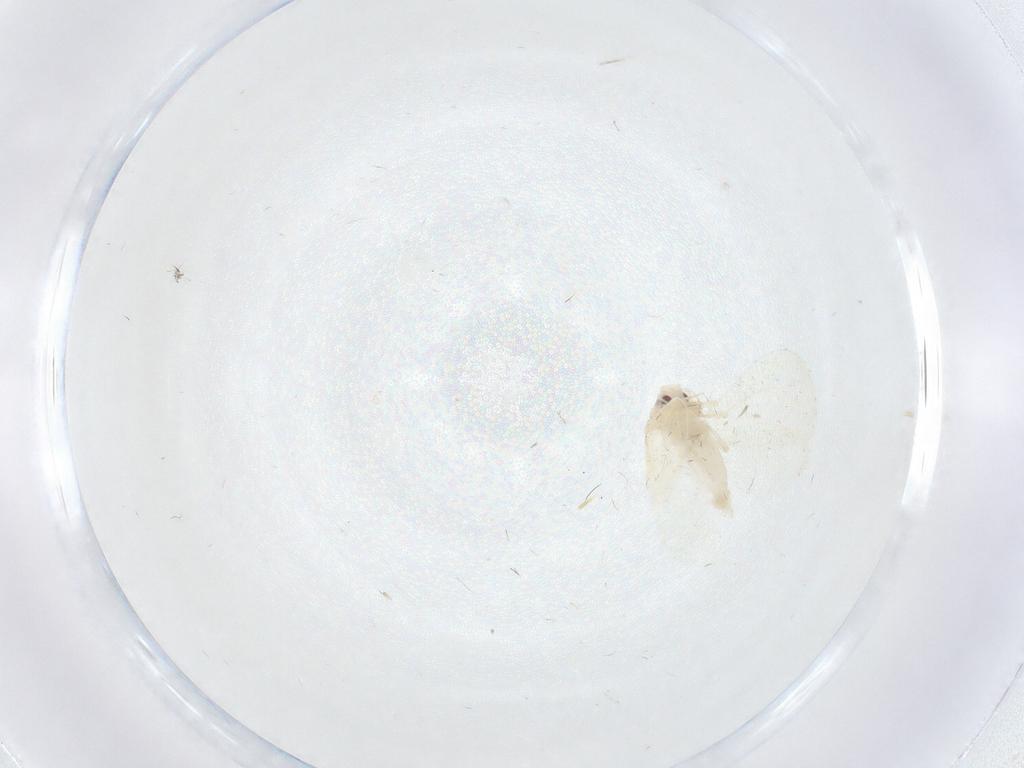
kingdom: Animalia
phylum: Arthropoda
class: Insecta
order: Hemiptera
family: Aleyrodidae
